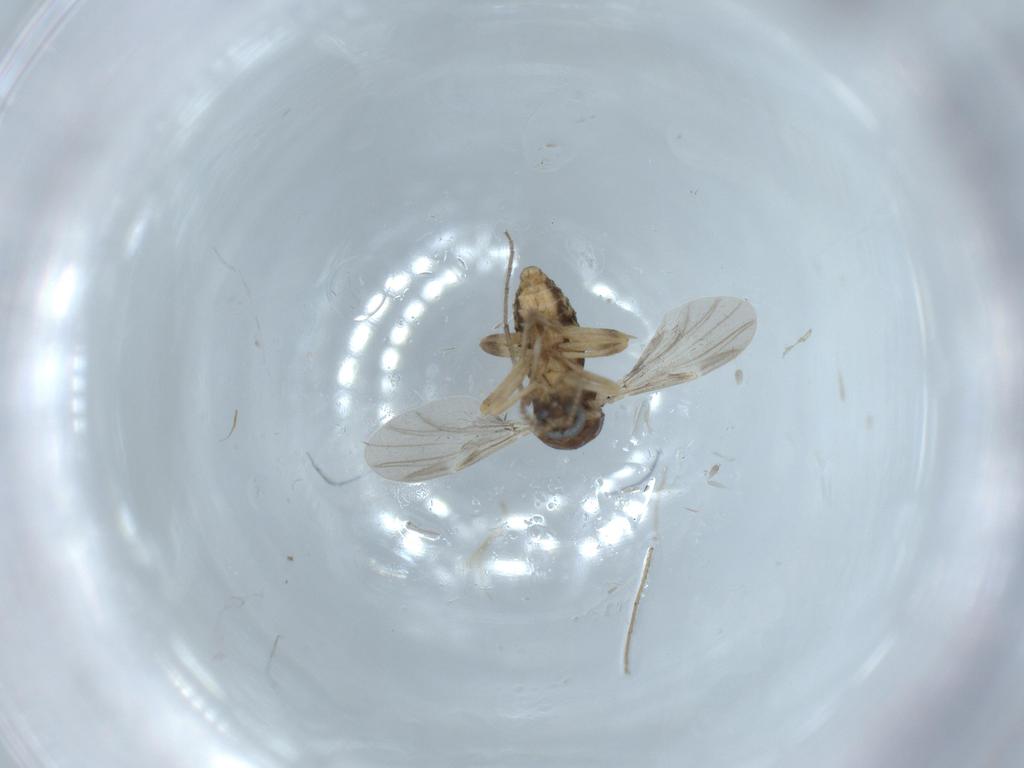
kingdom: Animalia
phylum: Arthropoda
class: Insecta
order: Diptera
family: Ceratopogonidae
